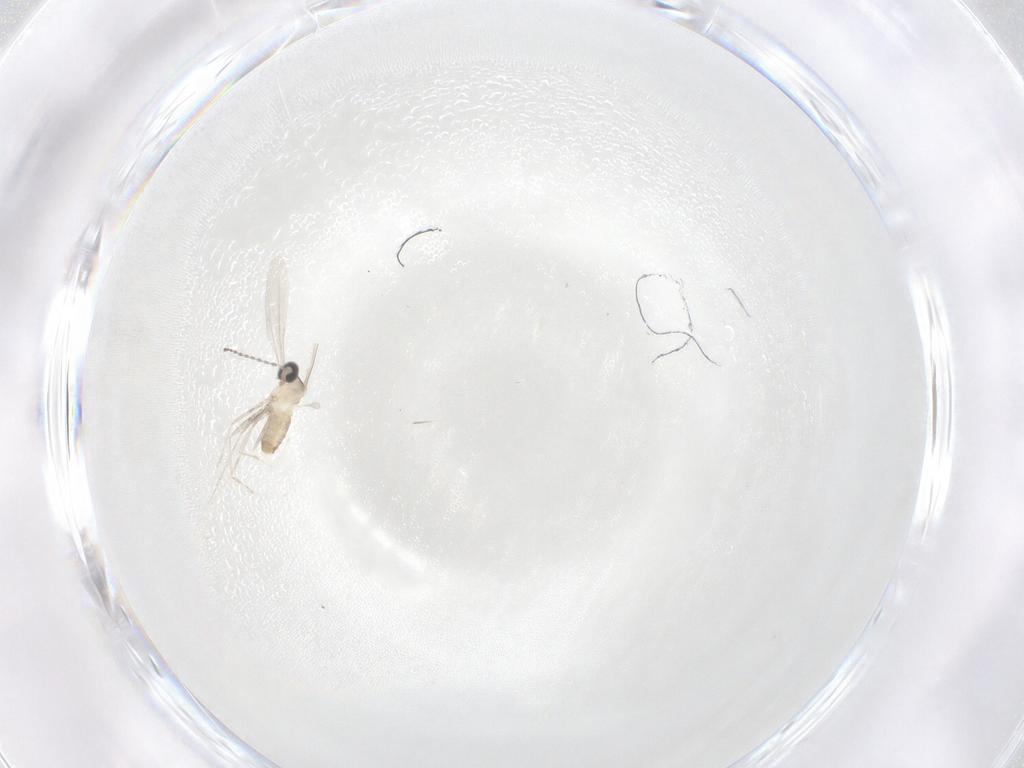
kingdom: Animalia
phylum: Arthropoda
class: Insecta
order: Diptera
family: Cecidomyiidae
